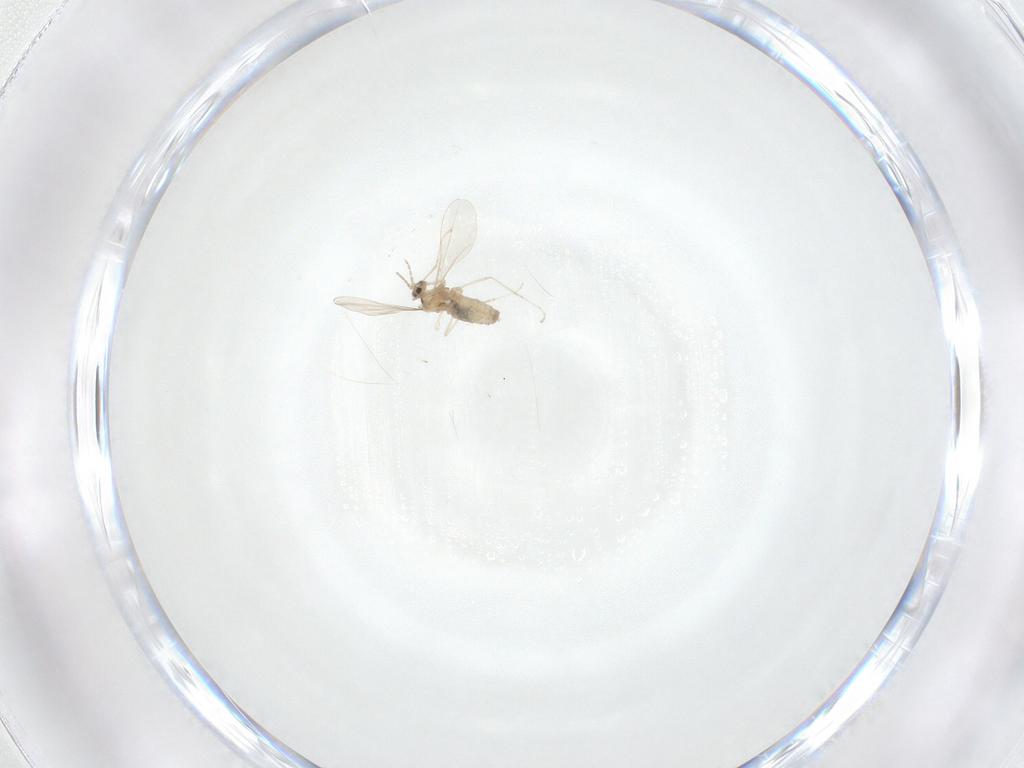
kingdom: Animalia
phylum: Arthropoda
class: Insecta
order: Diptera
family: Cecidomyiidae
